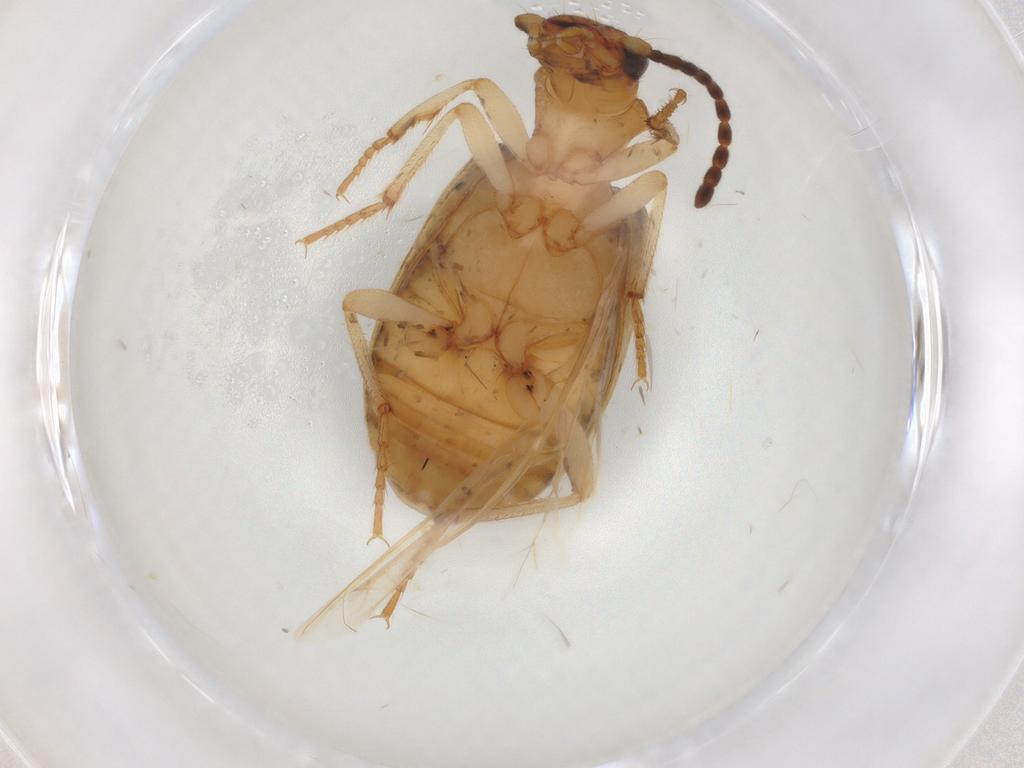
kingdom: Animalia
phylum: Arthropoda
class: Insecta
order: Coleoptera
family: Carabidae
